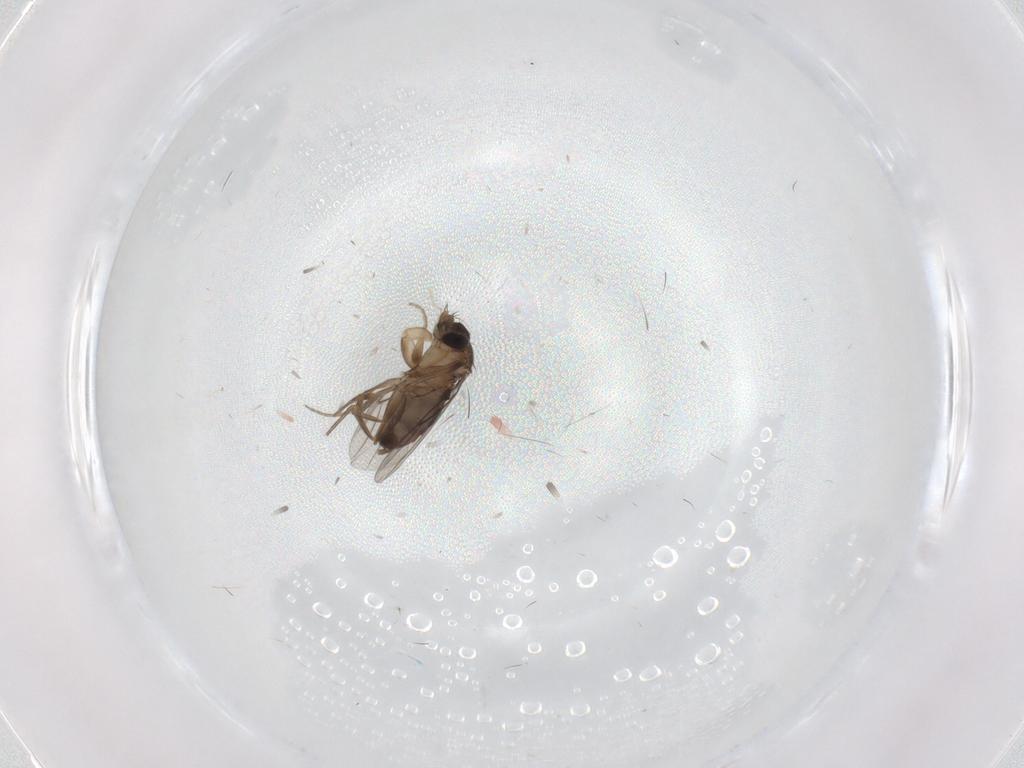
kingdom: Animalia
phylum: Arthropoda
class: Insecta
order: Diptera
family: Phoridae
